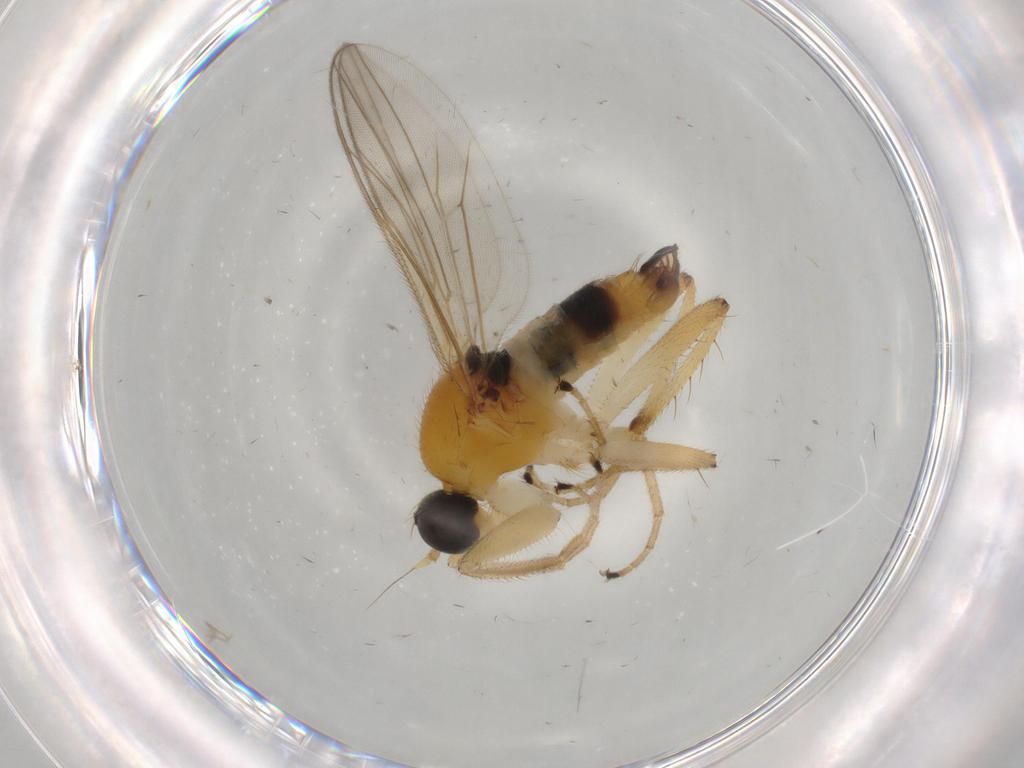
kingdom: Animalia
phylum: Arthropoda
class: Insecta
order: Diptera
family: Hybotidae
